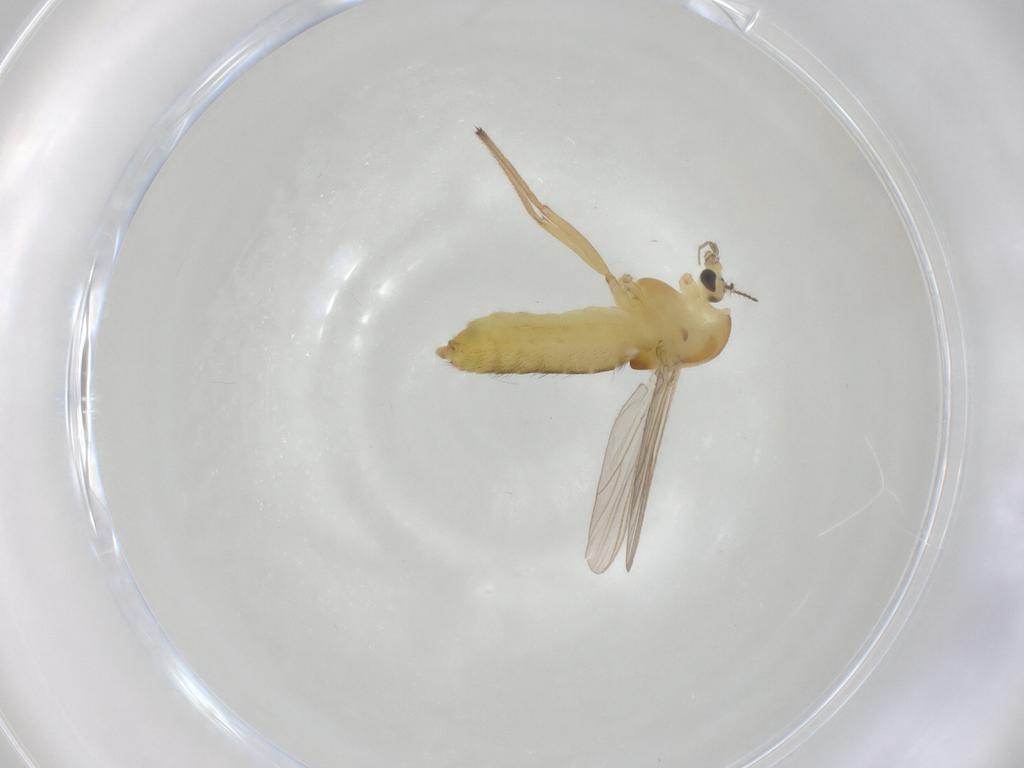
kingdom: Animalia
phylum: Arthropoda
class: Insecta
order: Diptera
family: Chironomidae
